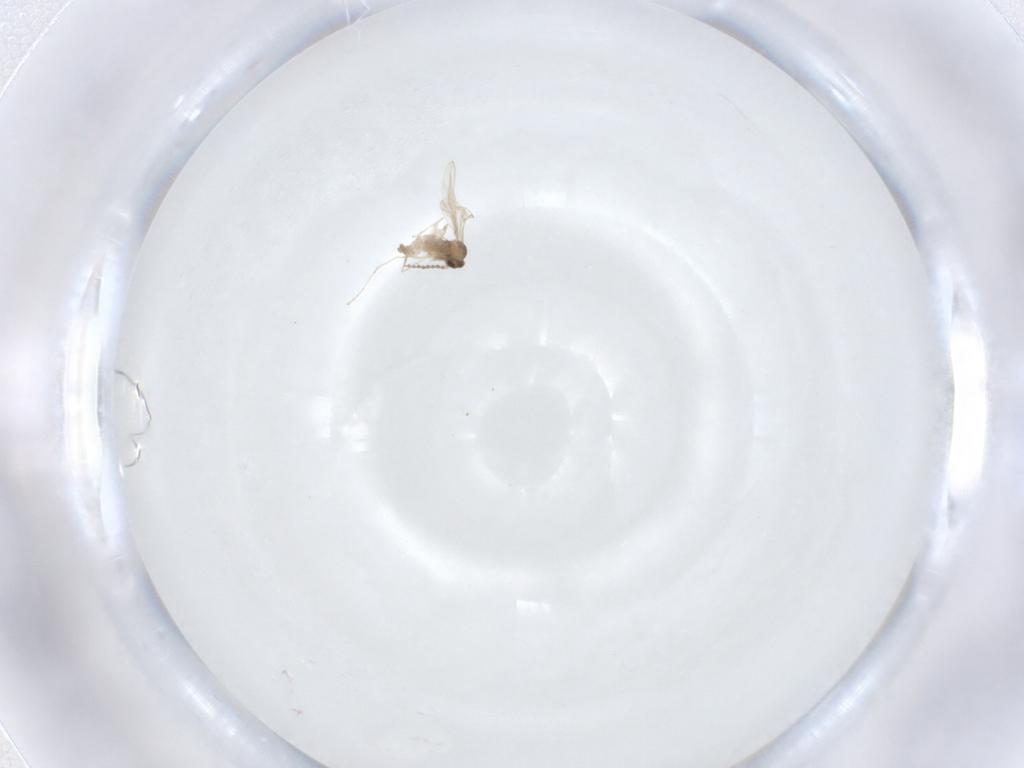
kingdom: Animalia
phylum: Arthropoda
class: Insecta
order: Diptera
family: Cecidomyiidae
